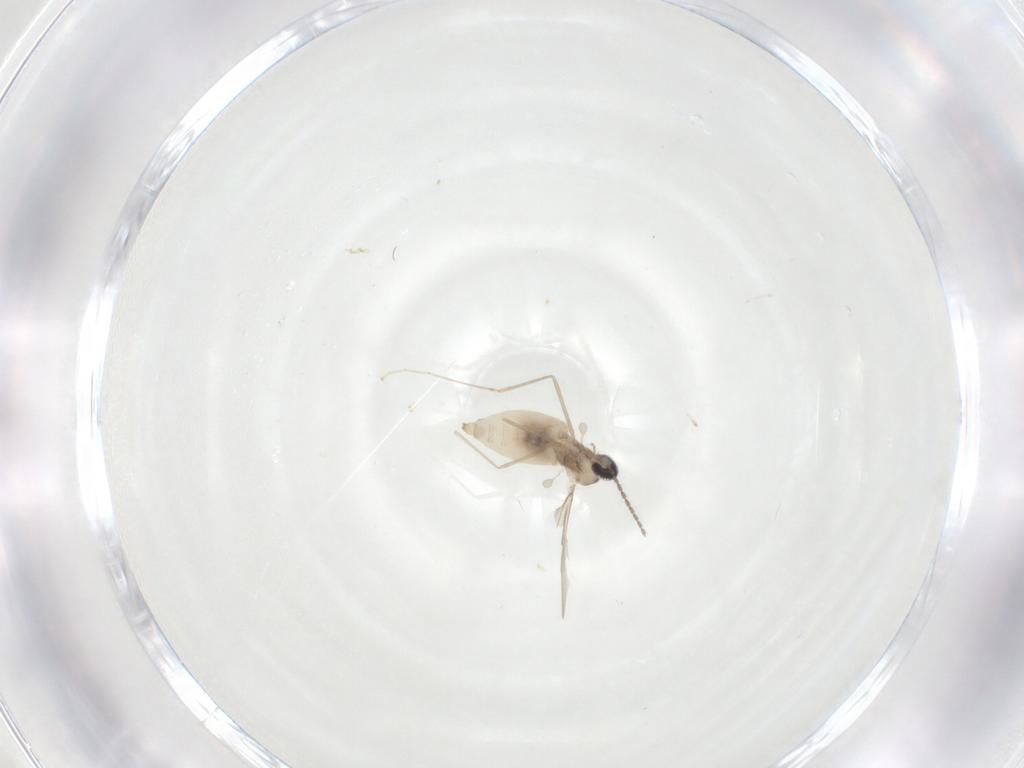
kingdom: Animalia
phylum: Arthropoda
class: Insecta
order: Diptera
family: Cecidomyiidae
